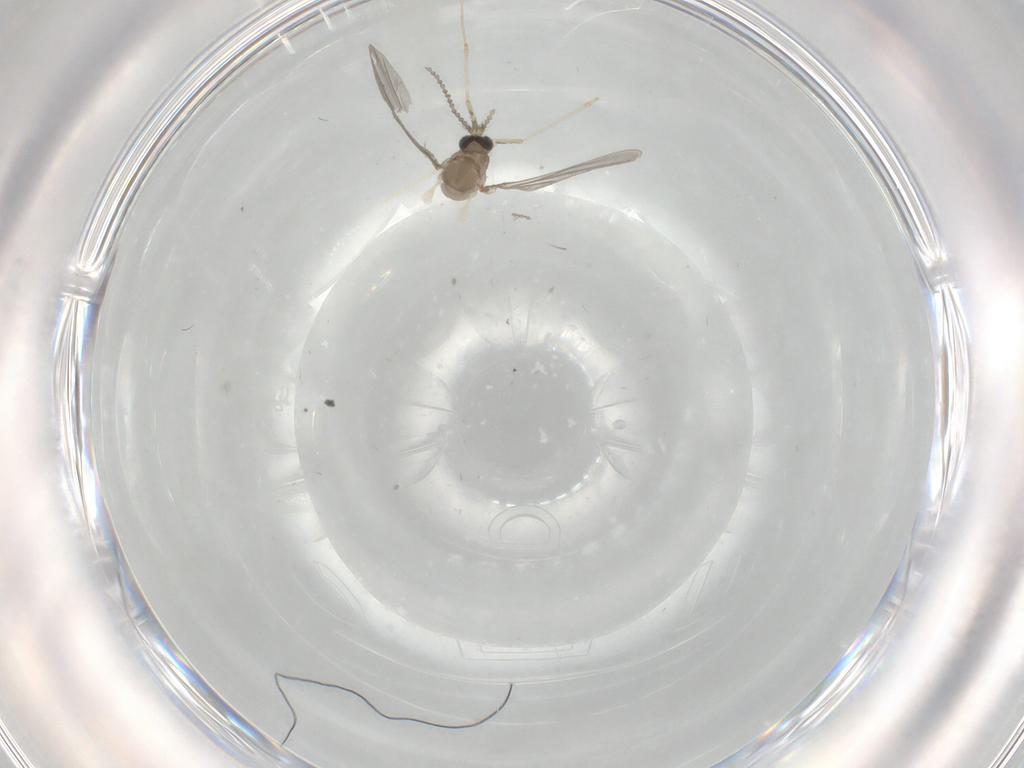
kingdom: Animalia
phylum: Arthropoda
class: Insecta
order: Diptera
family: Cecidomyiidae
